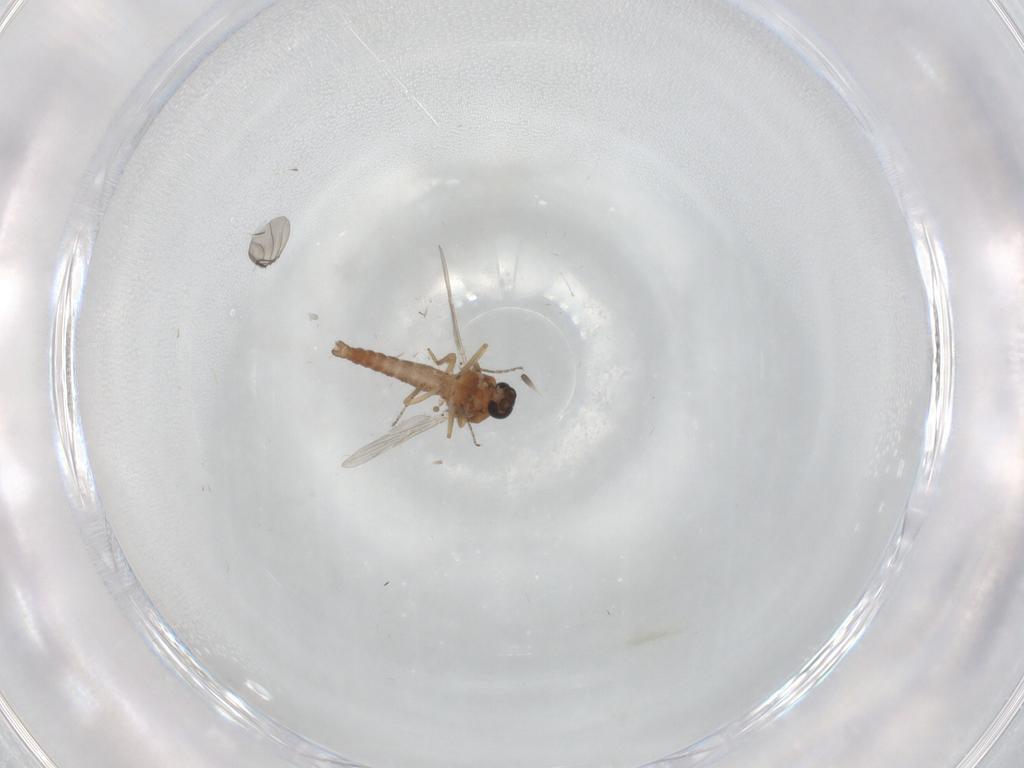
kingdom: Animalia
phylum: Arthropoda
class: Insecta
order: Diptera
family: Ceratopogonidae
